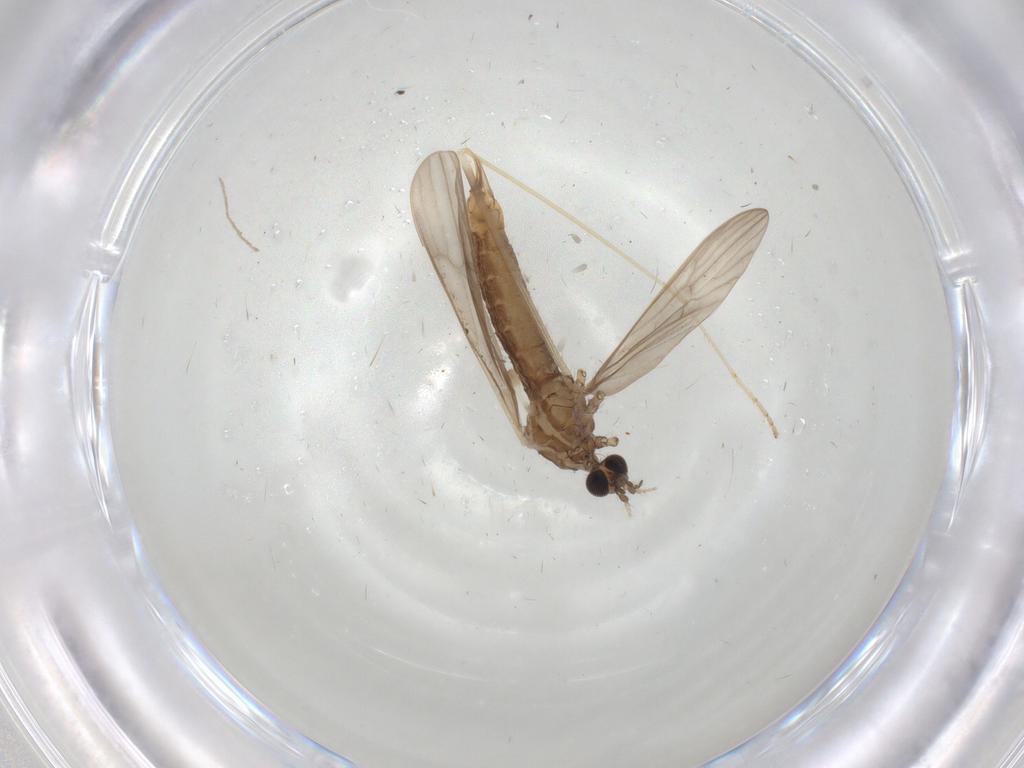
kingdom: Animalia
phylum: Arthropoda
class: Insecta
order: Diptera
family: Limoniidae
